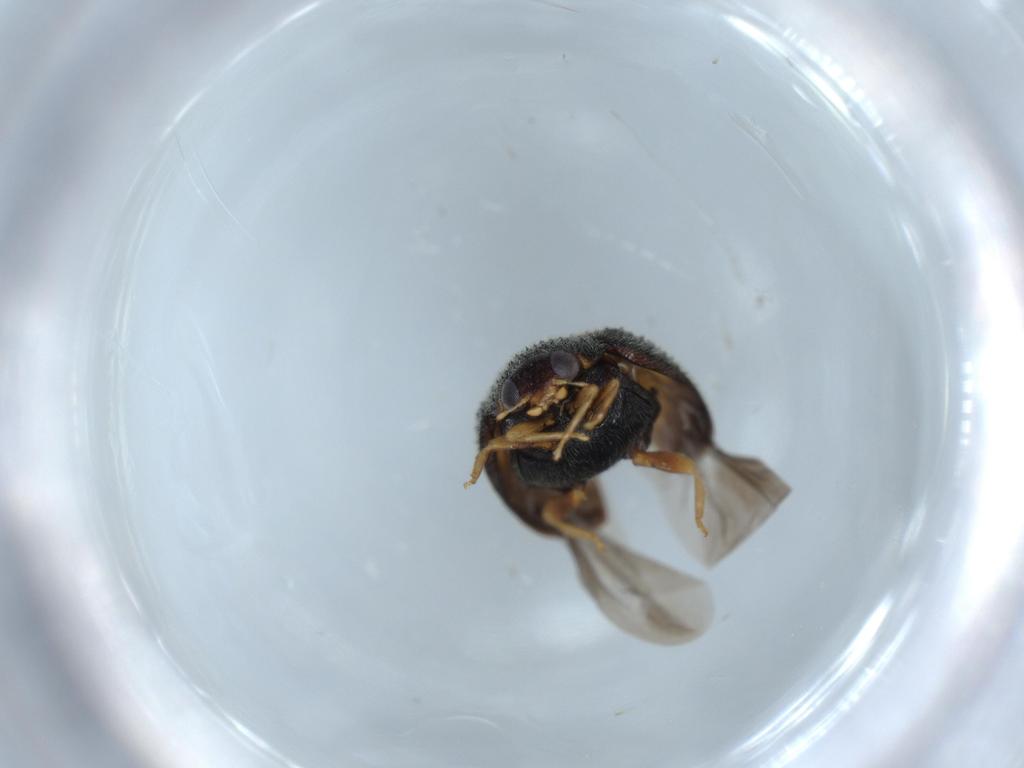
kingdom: Animalia
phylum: Arthropoda
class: Insecta
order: Coleoptera
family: Coccinellidae
